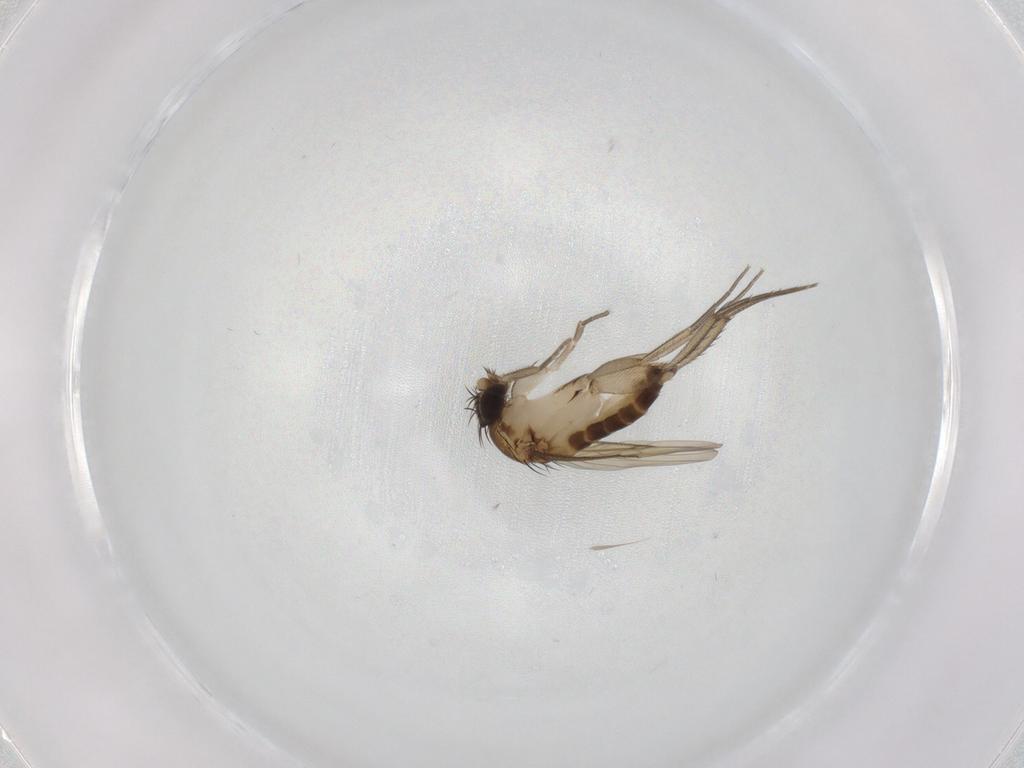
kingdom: Animalia
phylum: Arthropoda
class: Insecta
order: Diptera
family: Phoridae
